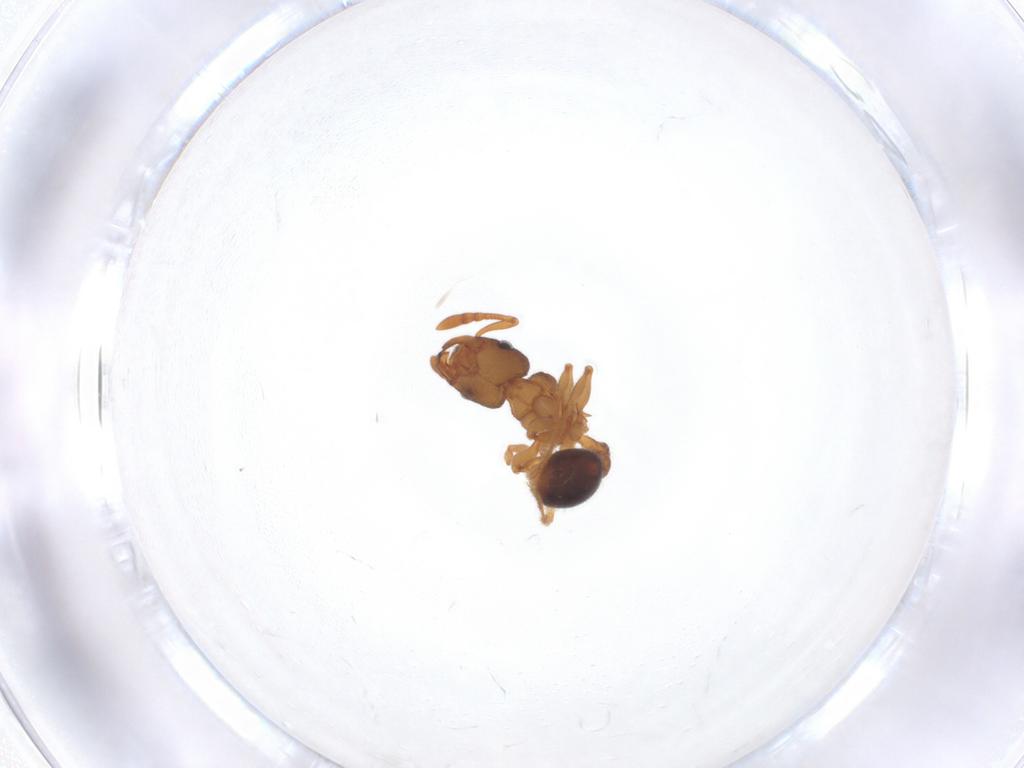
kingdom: Animalia
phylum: Arthropoda
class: Insecta
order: Hymenoptera
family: Formicidae
